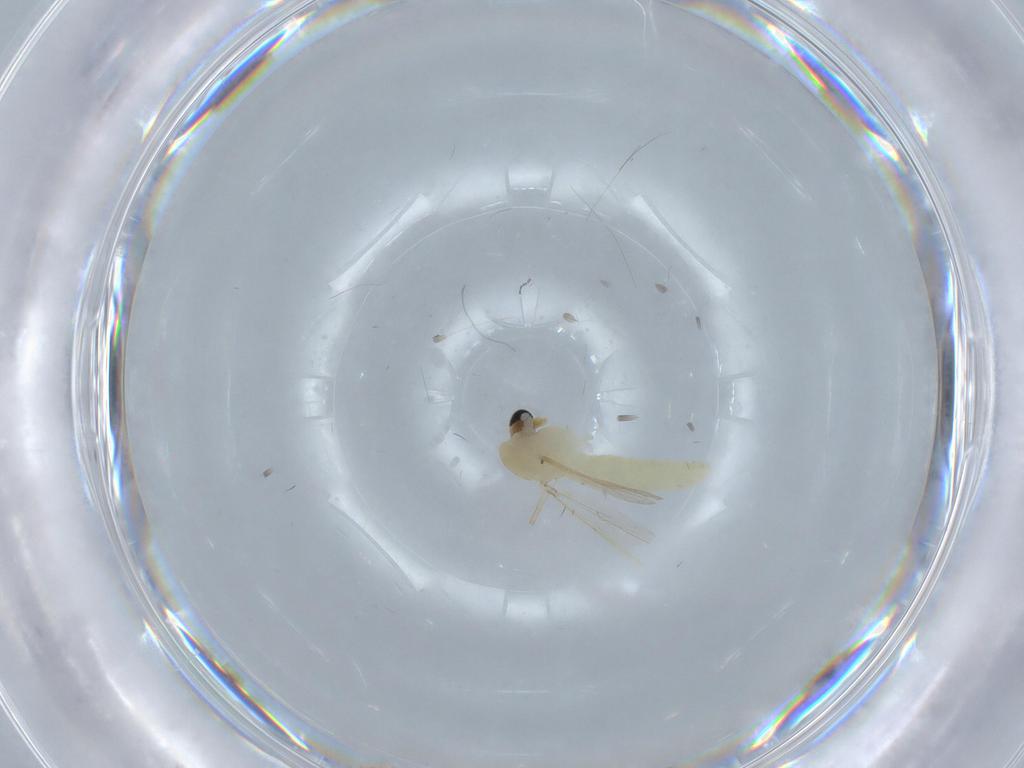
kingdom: Animalia
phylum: Arthropoda
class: Insecta
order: Diptera
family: Chironomidae
